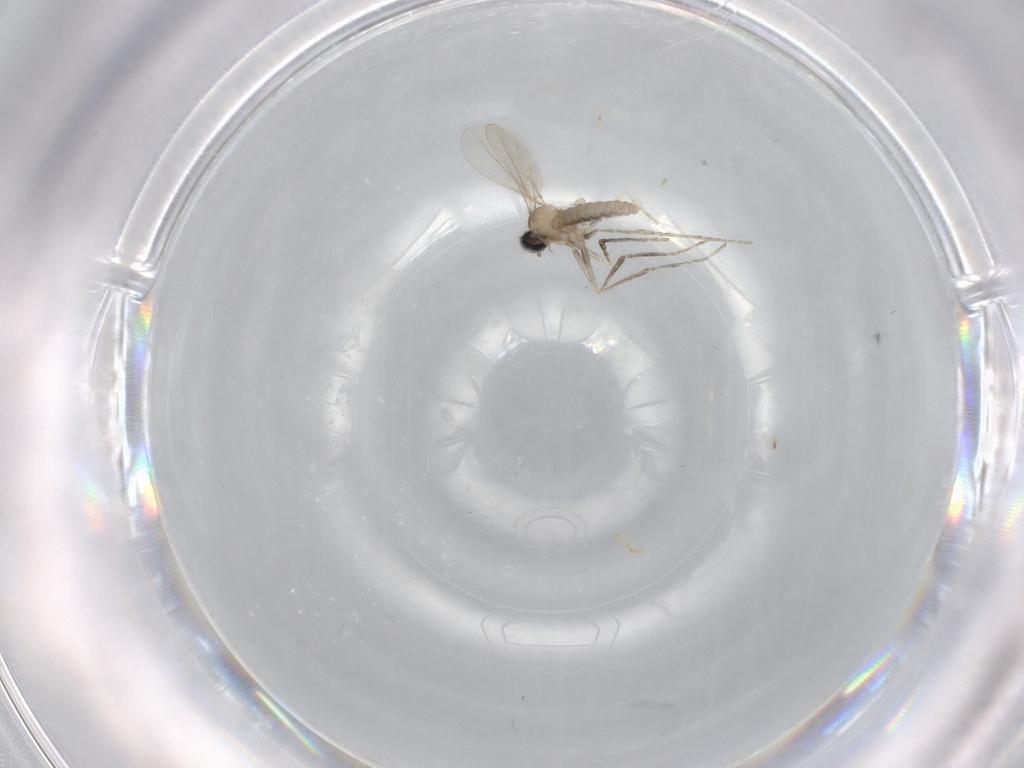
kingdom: Animalia
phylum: Arthropoda
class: Insecta
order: Diptera
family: Cecidomyiidae
